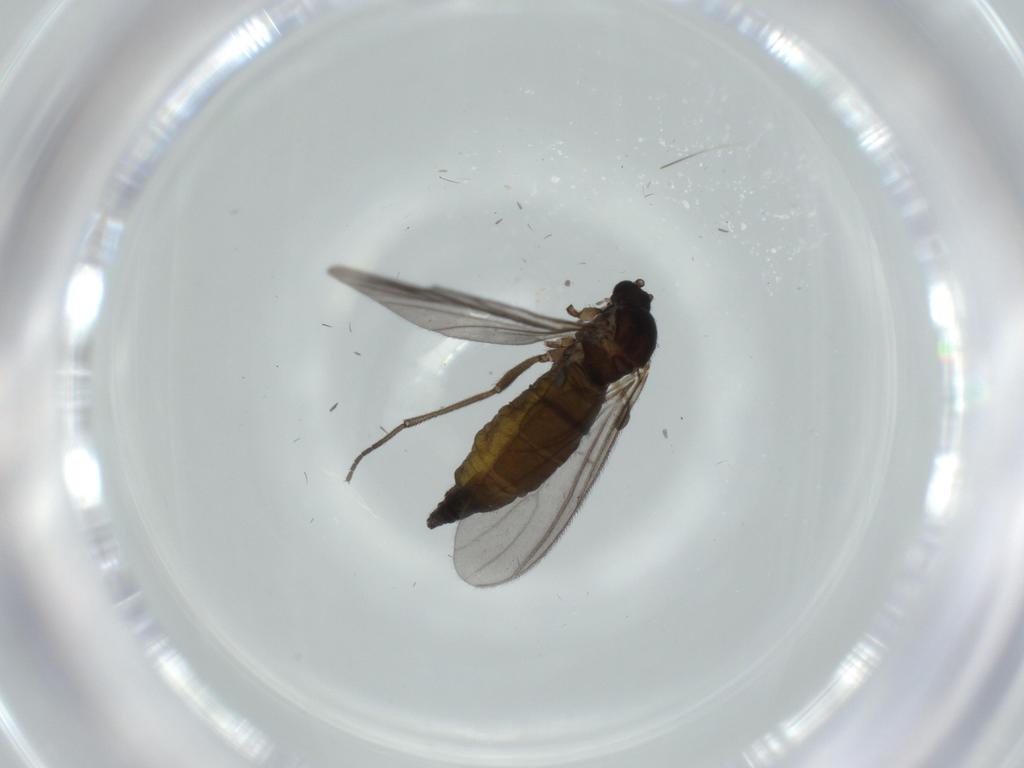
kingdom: Animalia
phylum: Arthropoda
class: Insecta
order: Diptera
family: Sciaridae
